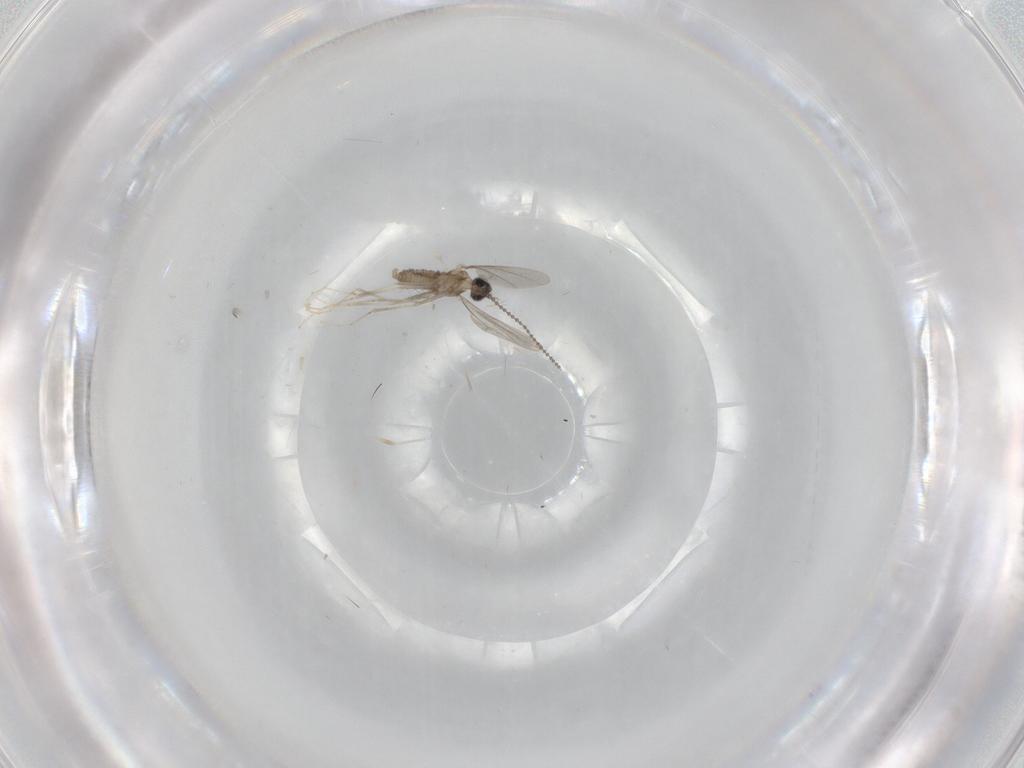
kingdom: Animalia
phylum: Arthropoda
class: Insecta
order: Diptera
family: Cecidomyiidae
